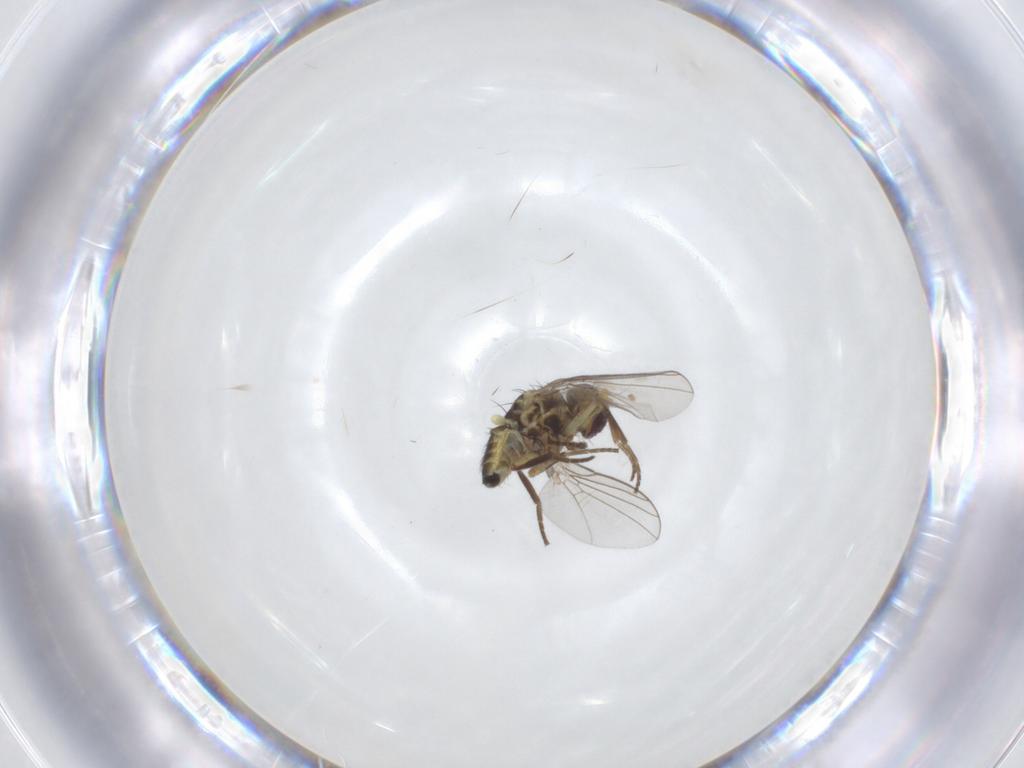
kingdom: Animalia
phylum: Arthropoda
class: Insecta
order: Diptera
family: Agromyzidae
